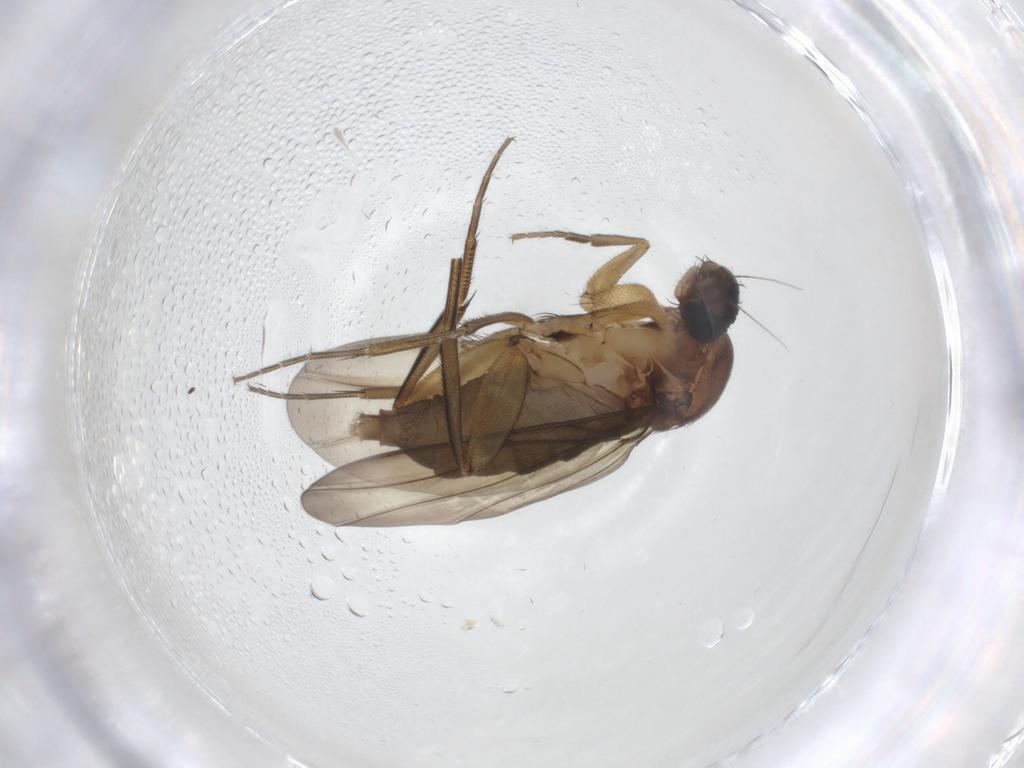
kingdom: Animalia
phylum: Arthropoda
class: Insecta
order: Diptera
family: Phoridae
